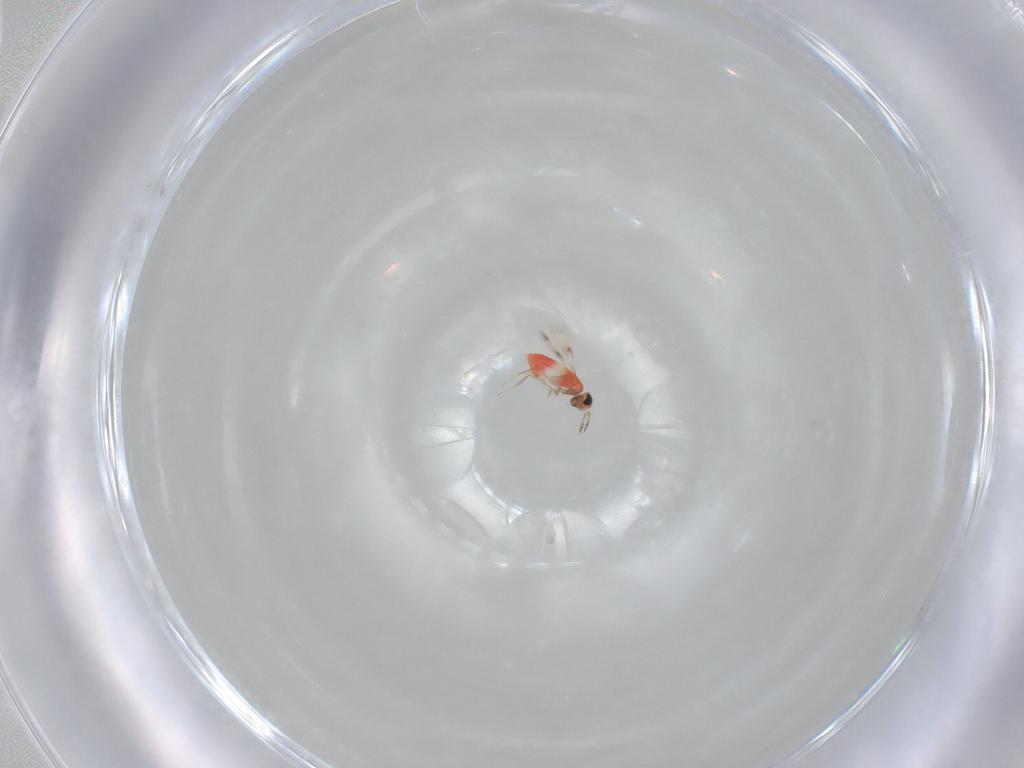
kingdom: Animalia
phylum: Arthropoda
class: Insecta
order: Hymenoptera
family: Trichogrammatidae
